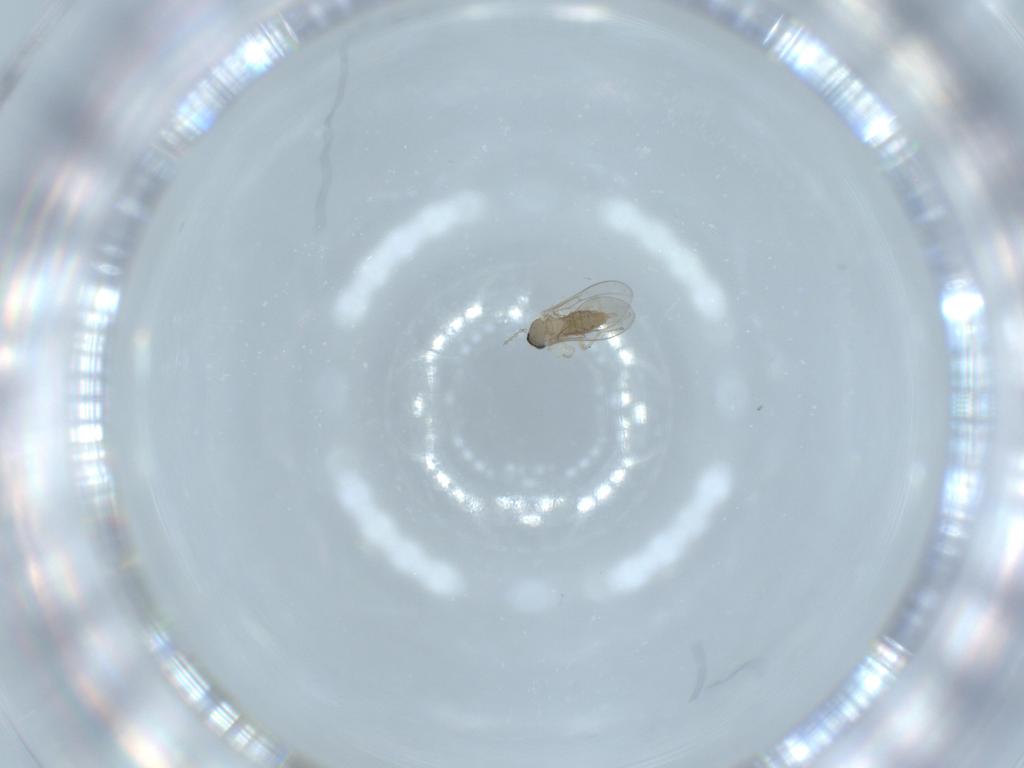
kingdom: Animalia
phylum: Arthropoda
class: Insecta
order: Diptera
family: Cecidomyiidae
